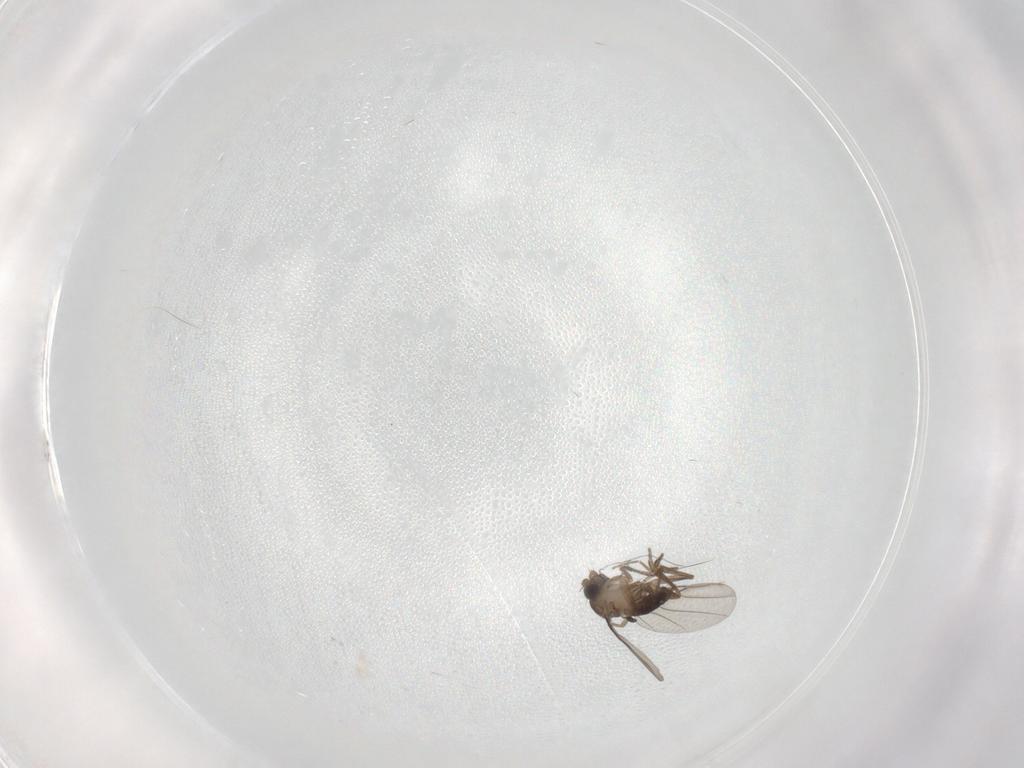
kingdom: Animalia
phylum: Arthropoda
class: Insecta
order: Diptera
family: Phoridae
